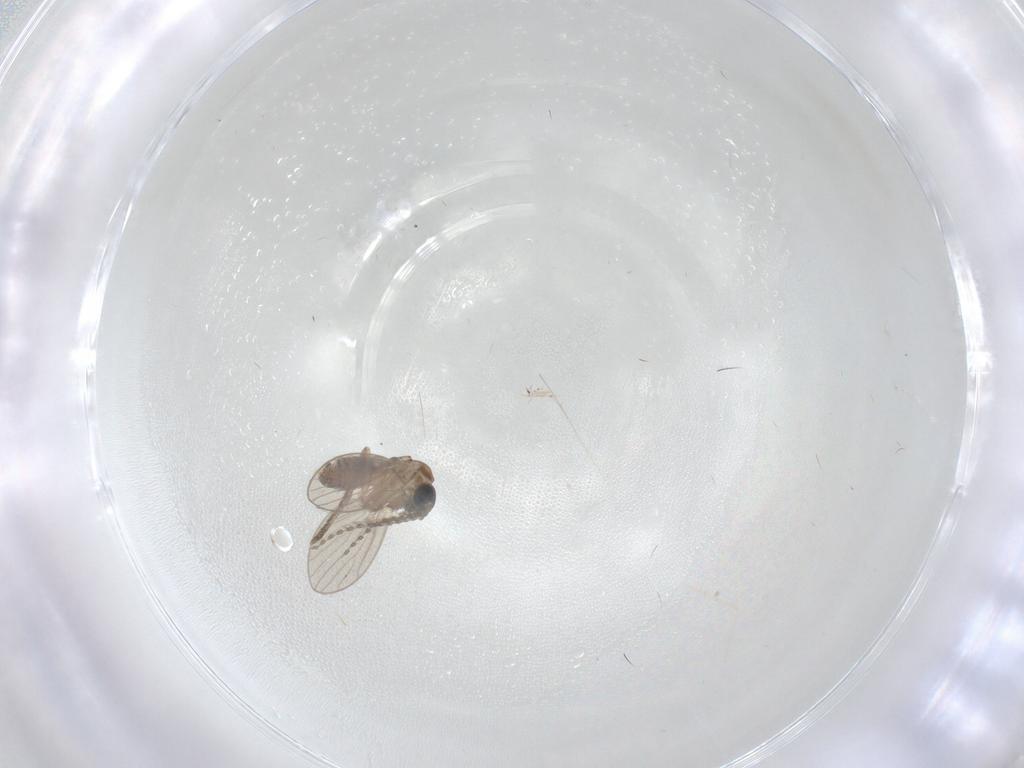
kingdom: Animalia
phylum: Arthropoda
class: Insecta
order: Diptera
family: Psychodidae
